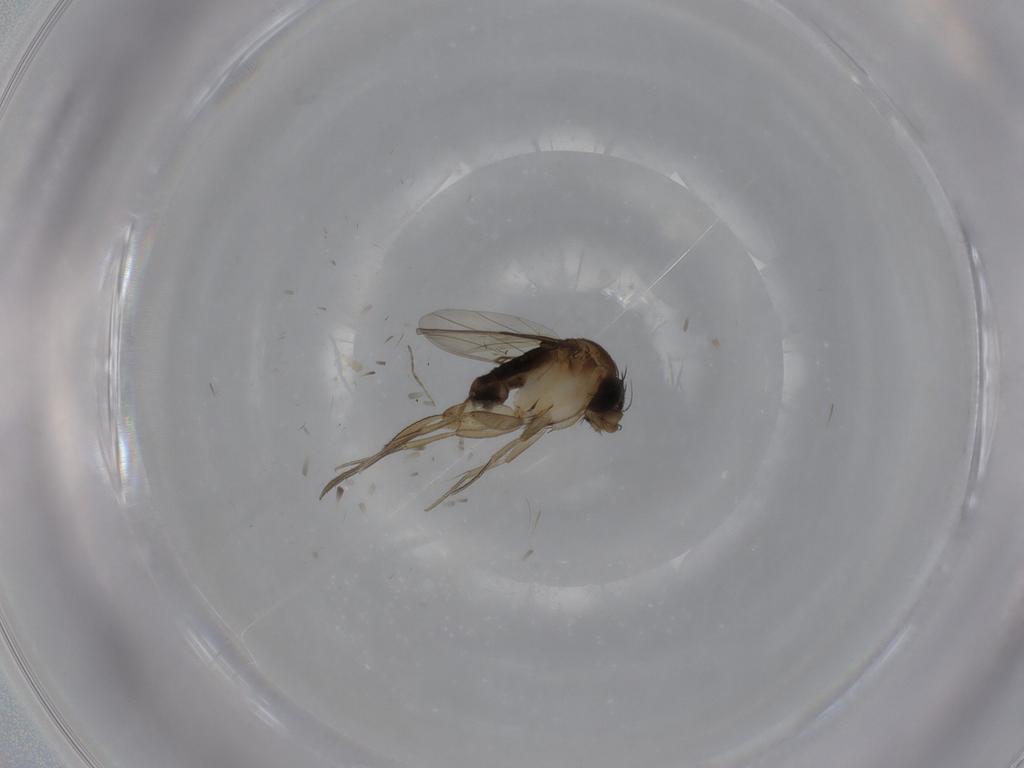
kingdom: Animalia
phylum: Arthropoda
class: Insecta
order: Diptera
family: Phoridae
